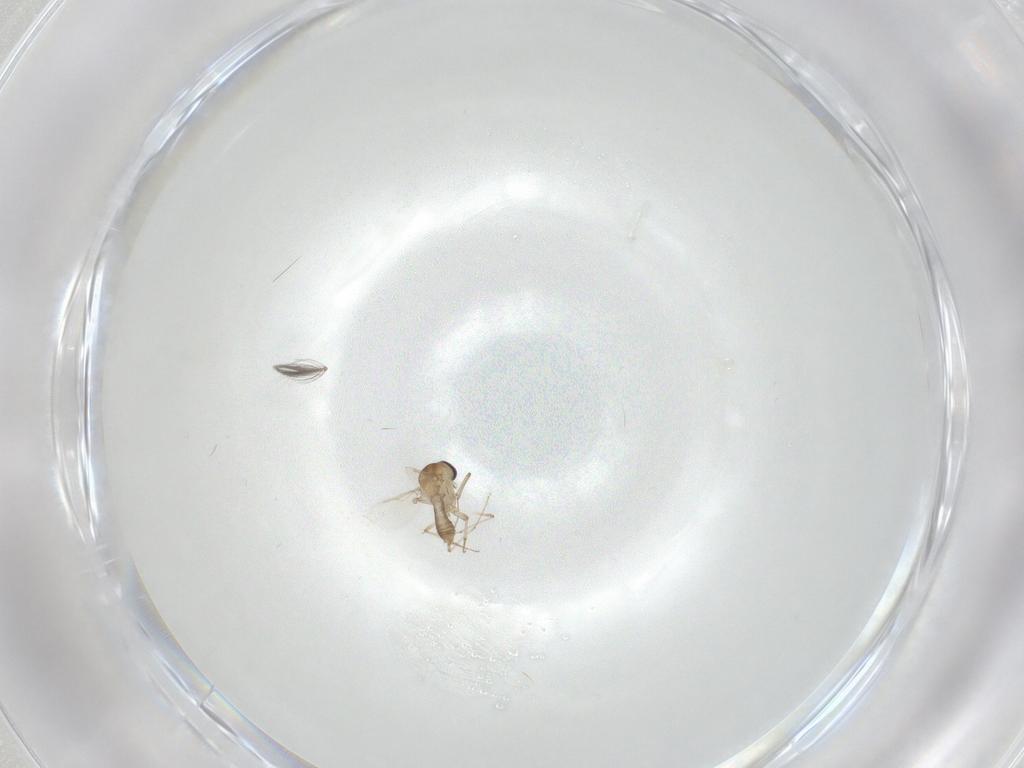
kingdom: Animalia
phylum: Arthropoda
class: Insecta
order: Diptera
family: Ceratopogonidae
